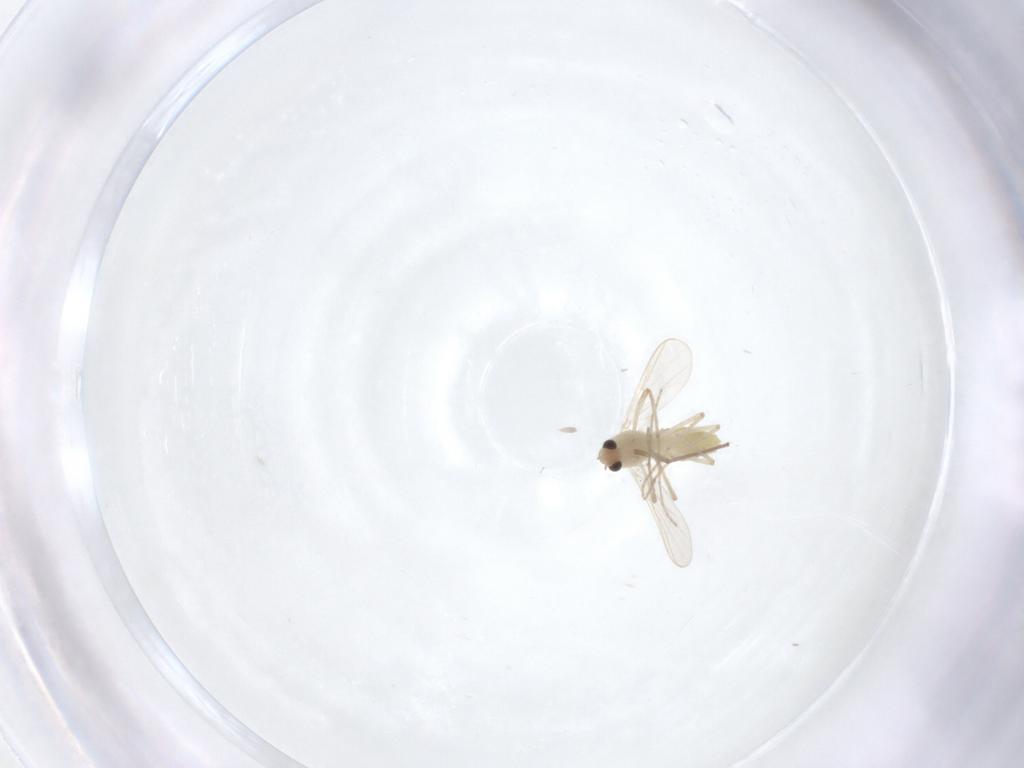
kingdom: Animalia
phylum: Arthropoda
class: Insecta
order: Diptera
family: Chironomidae
